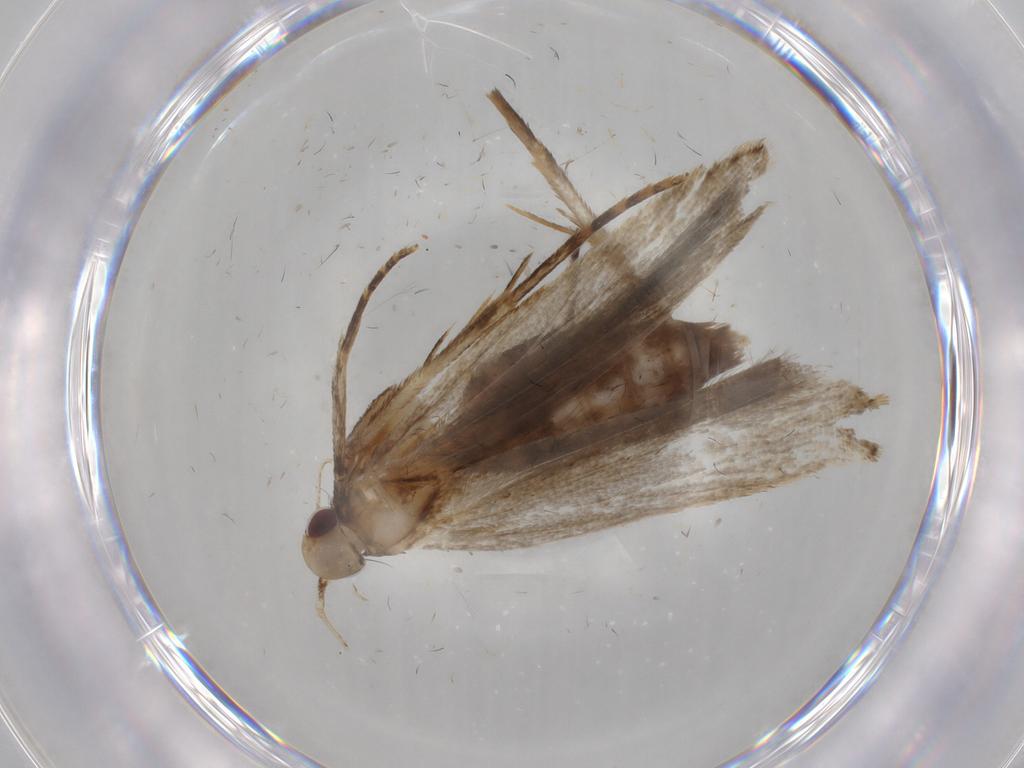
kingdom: Animalia
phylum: Arthropoda
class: Insecta
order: Lepidoptera
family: Gelechiidae
